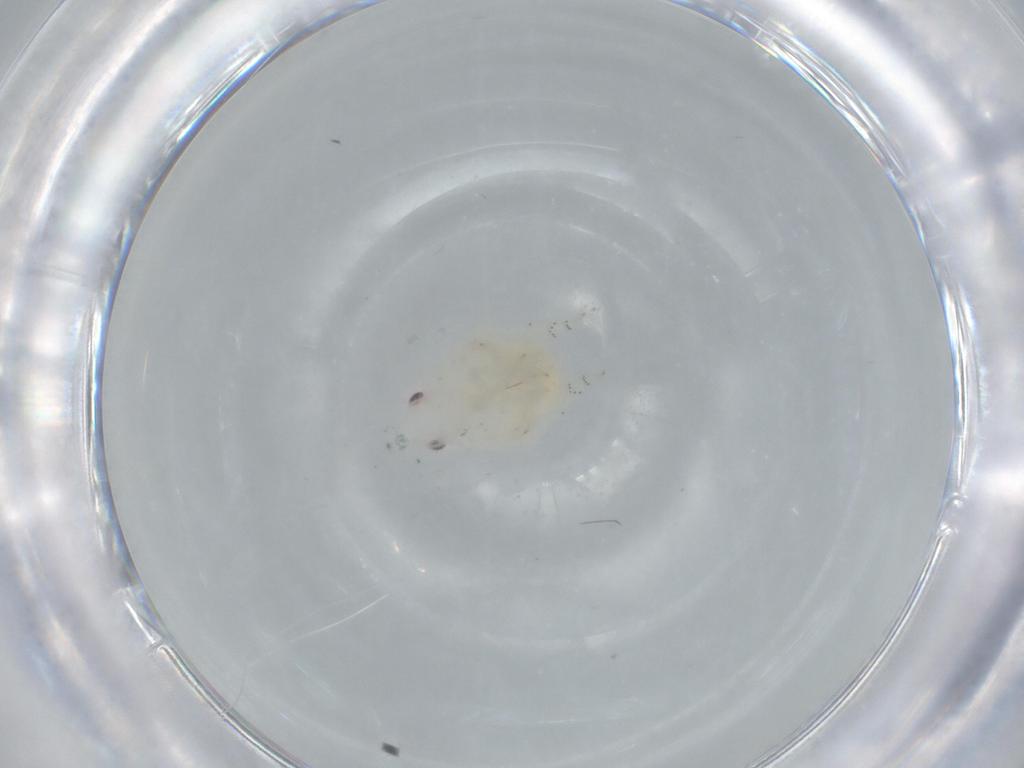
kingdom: Animalia
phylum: Arthropoda
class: Insecta
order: Hemiptera
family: Flatidae
